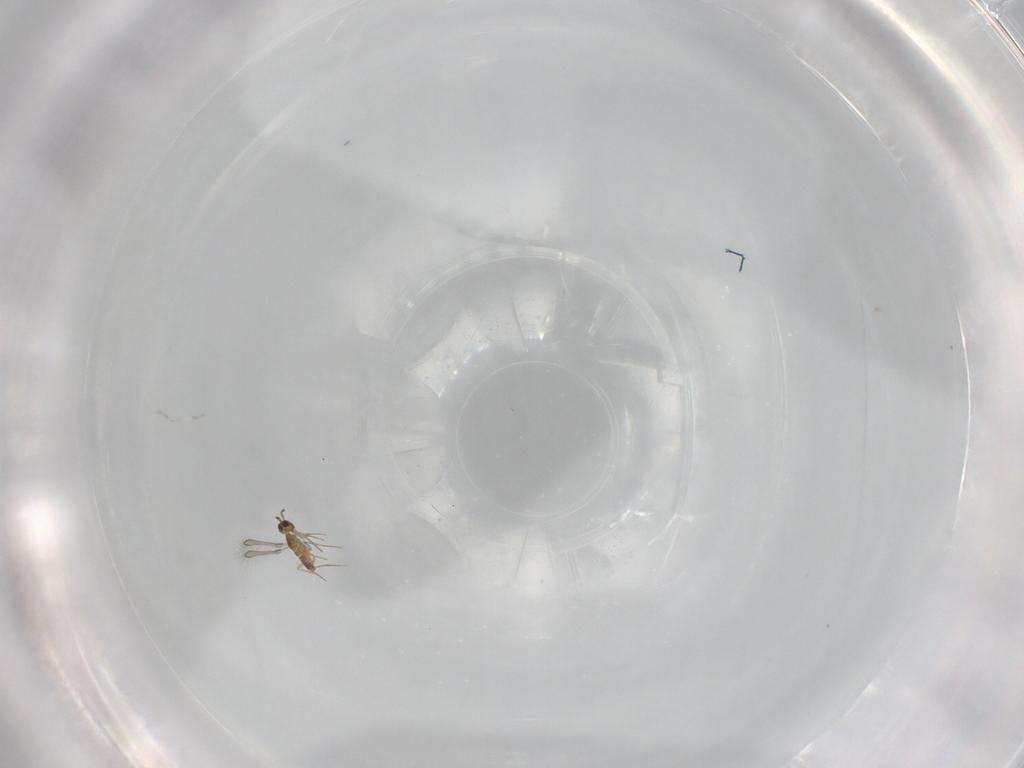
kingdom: Animalia
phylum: Arthropoda
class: Insecta
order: Hymenoptera
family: Mymaridae
